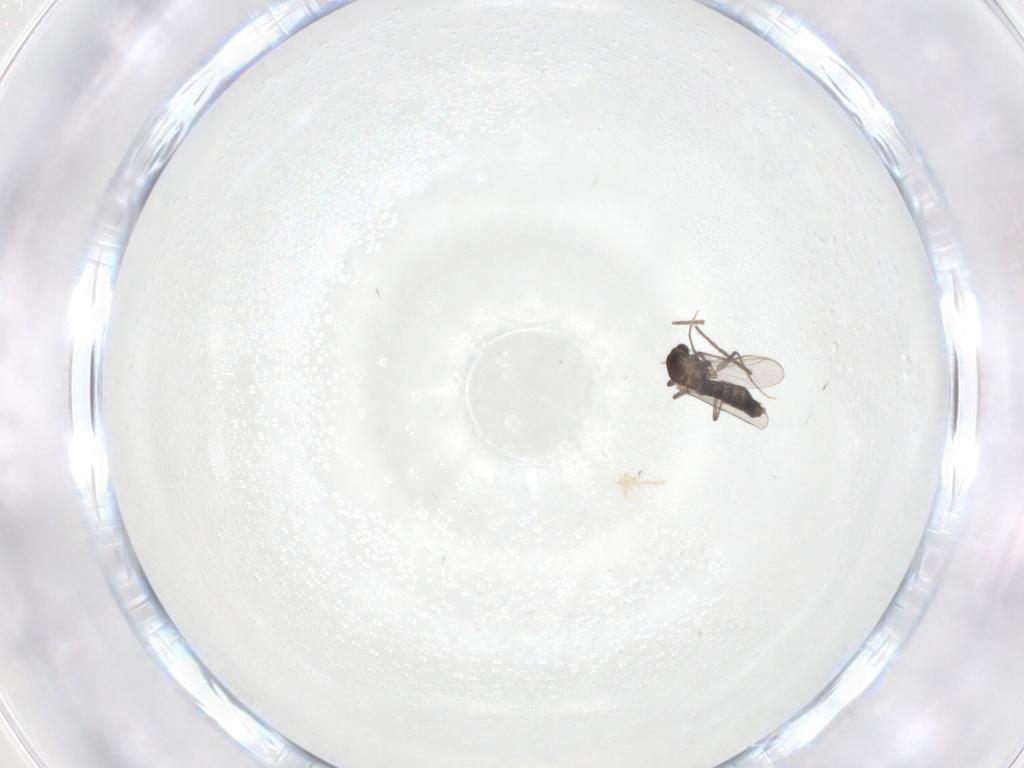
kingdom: Animalia
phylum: Arthropoda
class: Insecta
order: Diptera
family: Chironomidae
